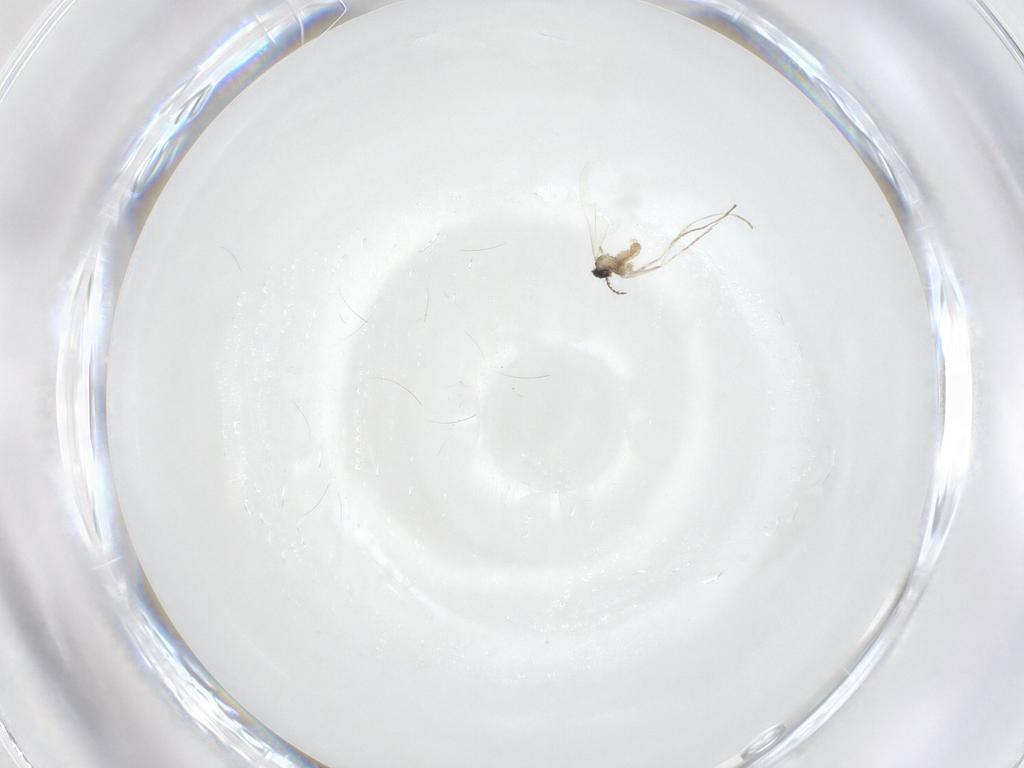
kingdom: Animalia
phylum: Arthropoda
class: Insecta
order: Diptera
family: Cecidomyiidae
